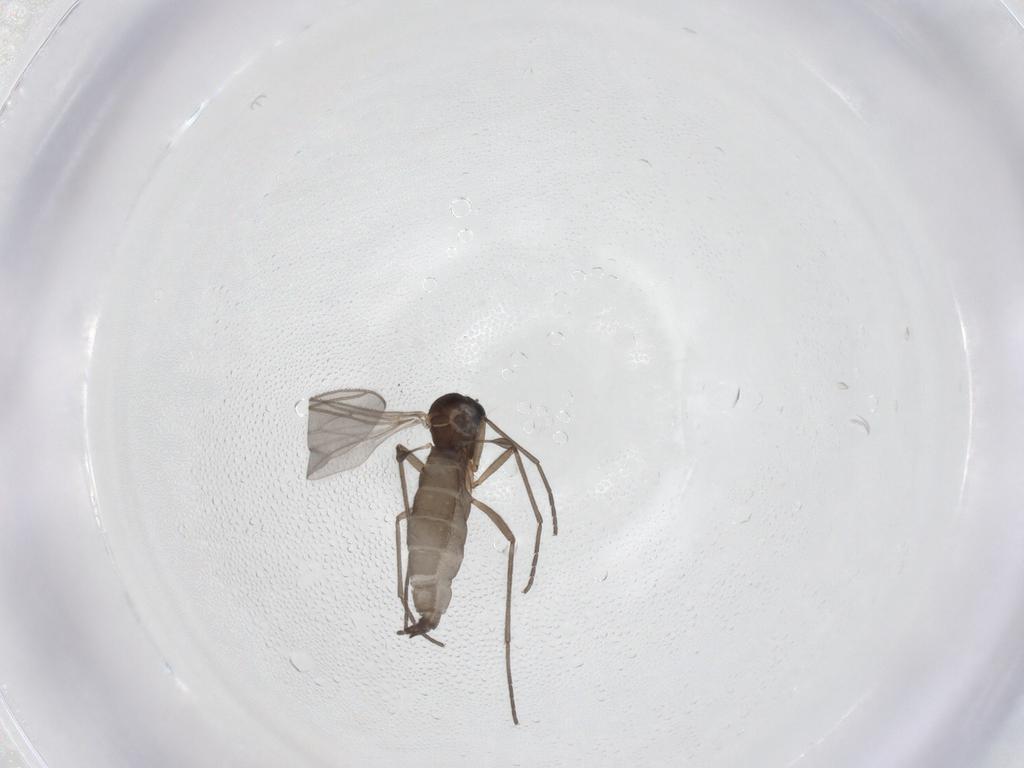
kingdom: Animalia
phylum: Arthropoda
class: Insecta
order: Diptera
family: Sciaridae
